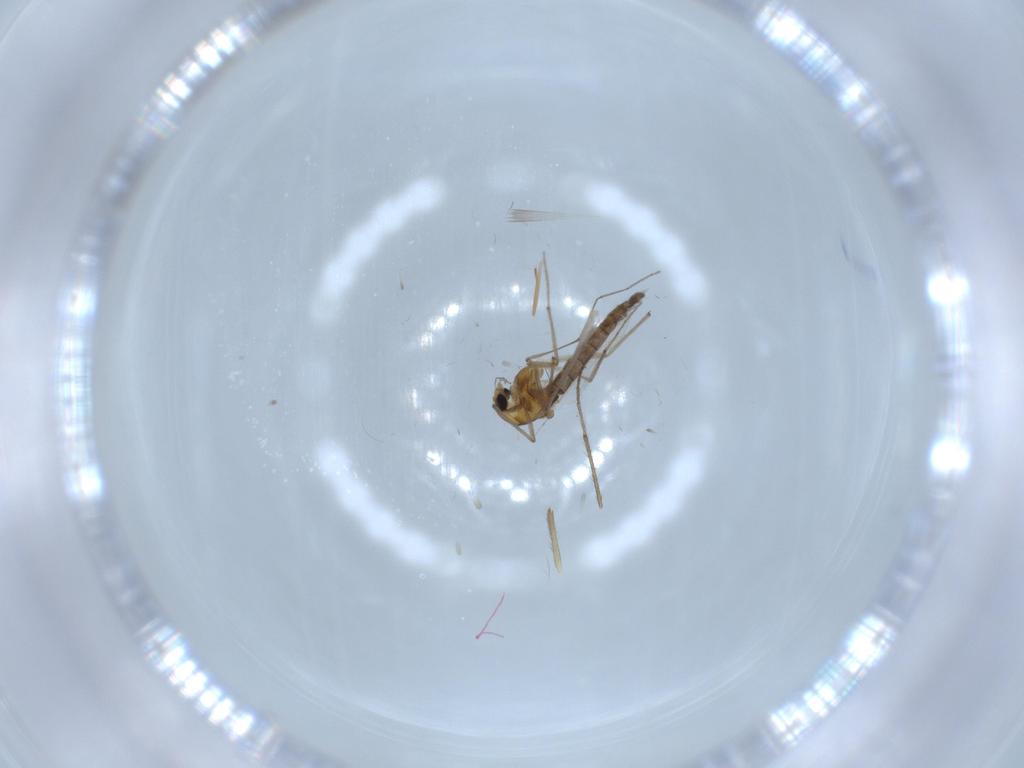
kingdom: Animalia
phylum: Arthropoda
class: Insecta
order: Diptera
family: Chironomidae
